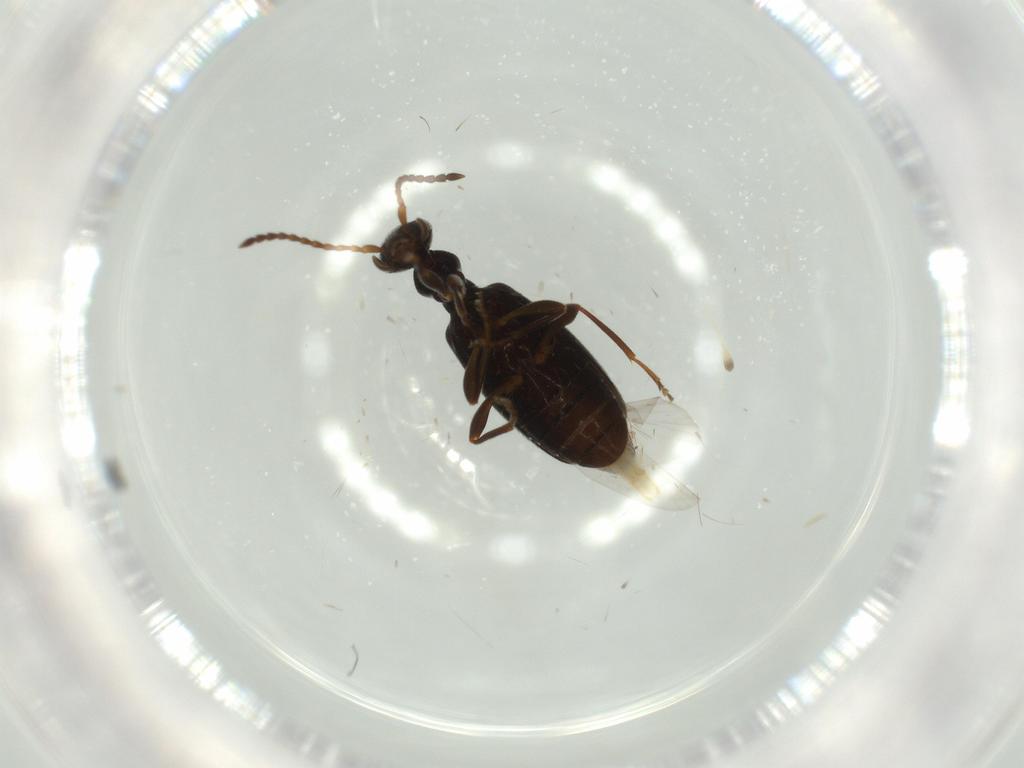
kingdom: Animalia
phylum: Arthropoda
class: Insecta
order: Coleoptera
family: Anthicidae
